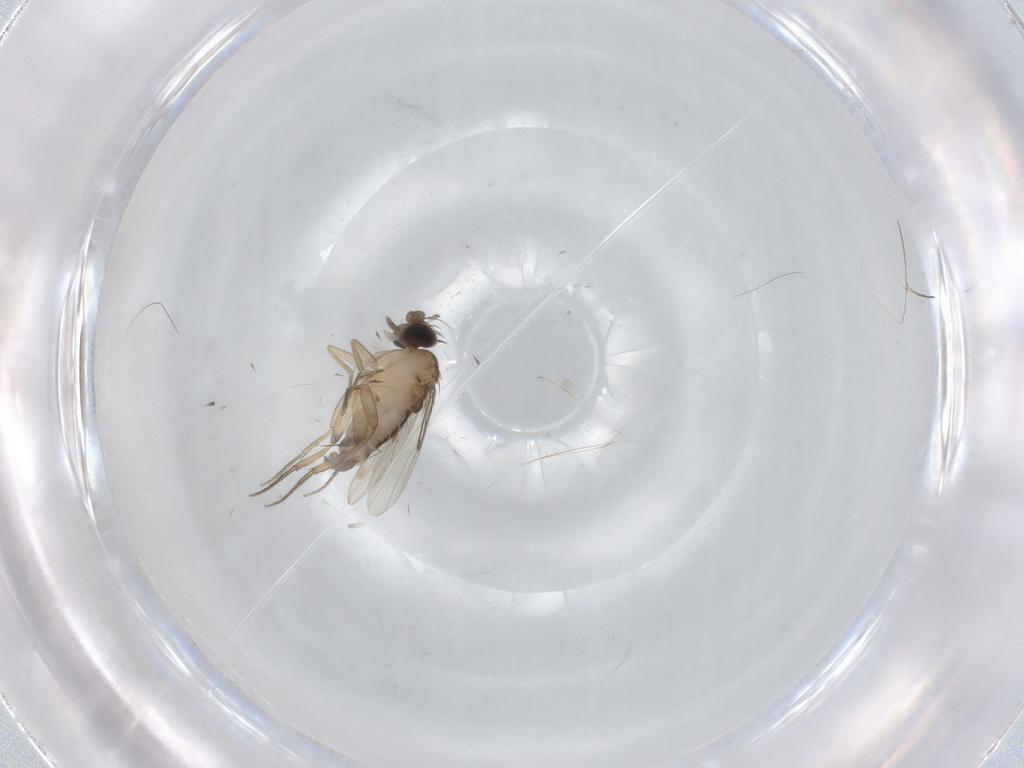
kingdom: Animalia
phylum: Arthropoda
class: Insecta
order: Diptera
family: Phoridae
